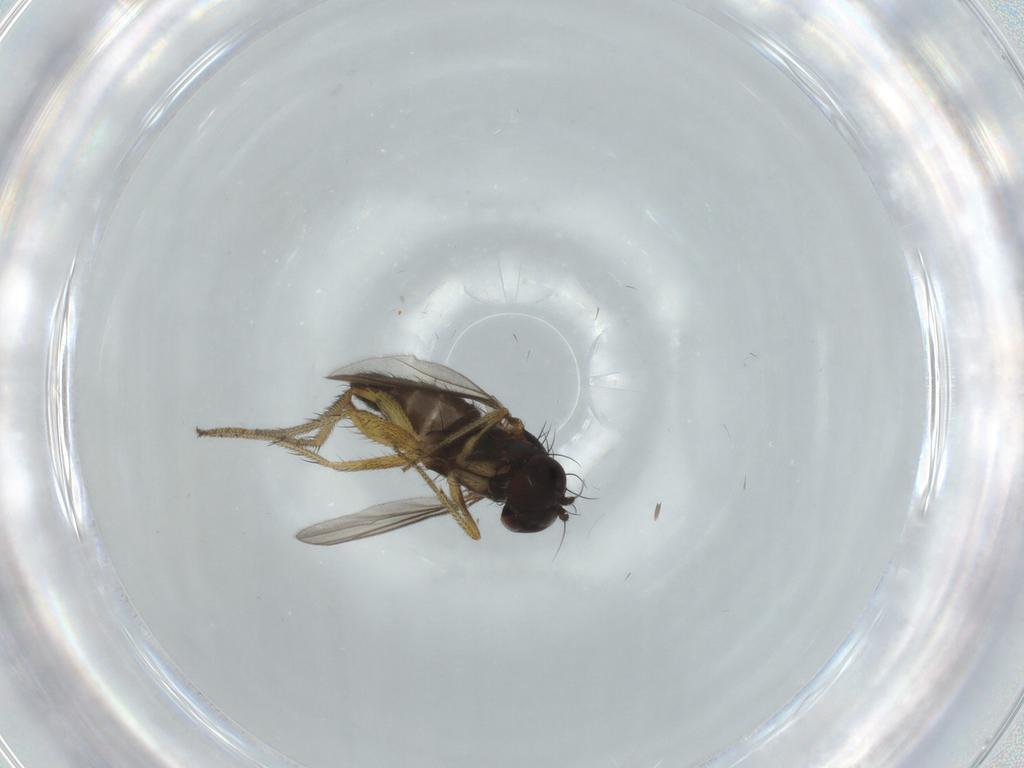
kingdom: Animalia
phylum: Arthropoda
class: Insecta
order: Diptera
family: Dolichopodidae
